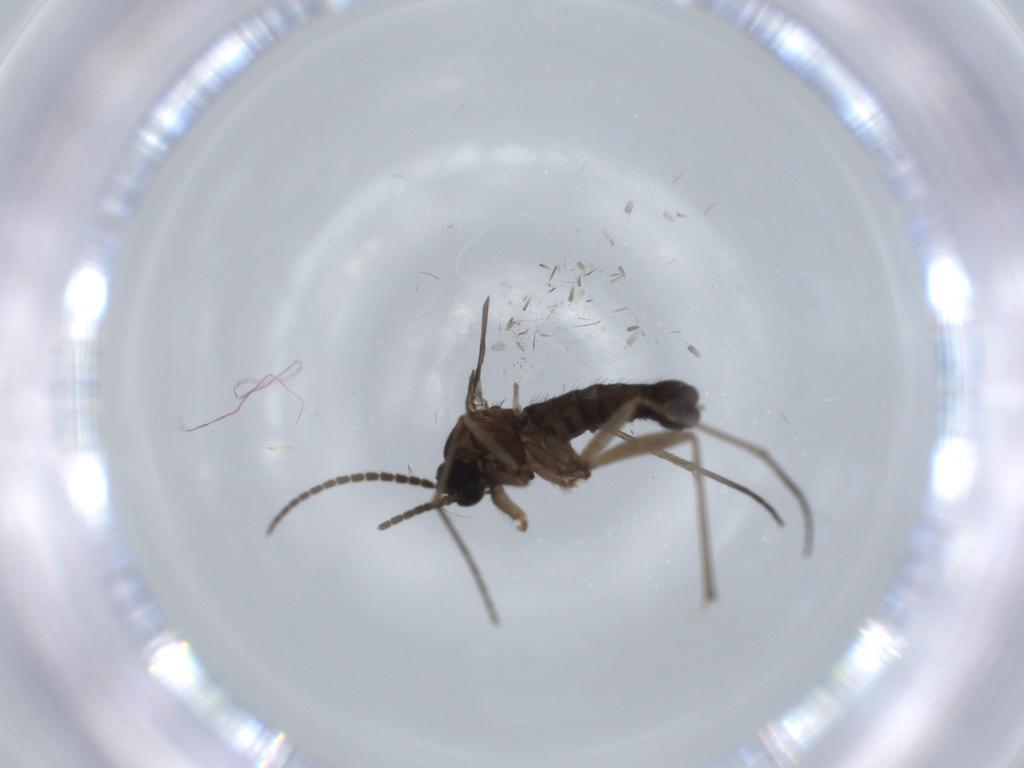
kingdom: Animalia
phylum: Arthropoda
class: Insecta
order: Diptera
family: Sciaridae
